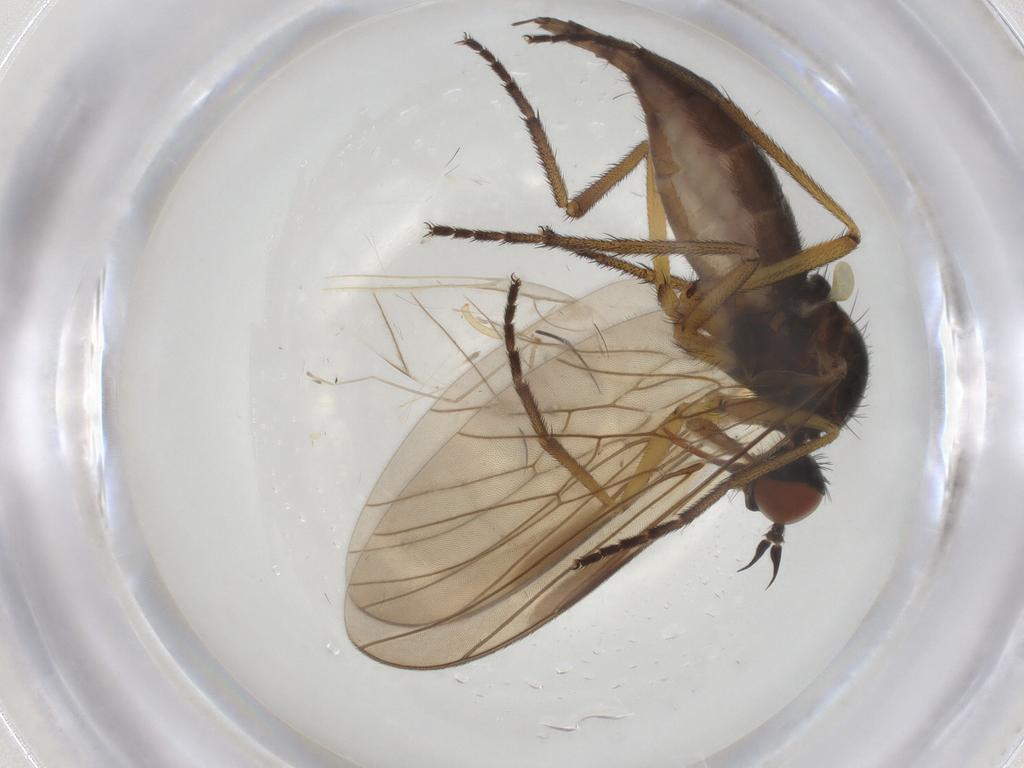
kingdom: Animalia
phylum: Arthropoda
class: Insecta
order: Diptera
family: Empididae
